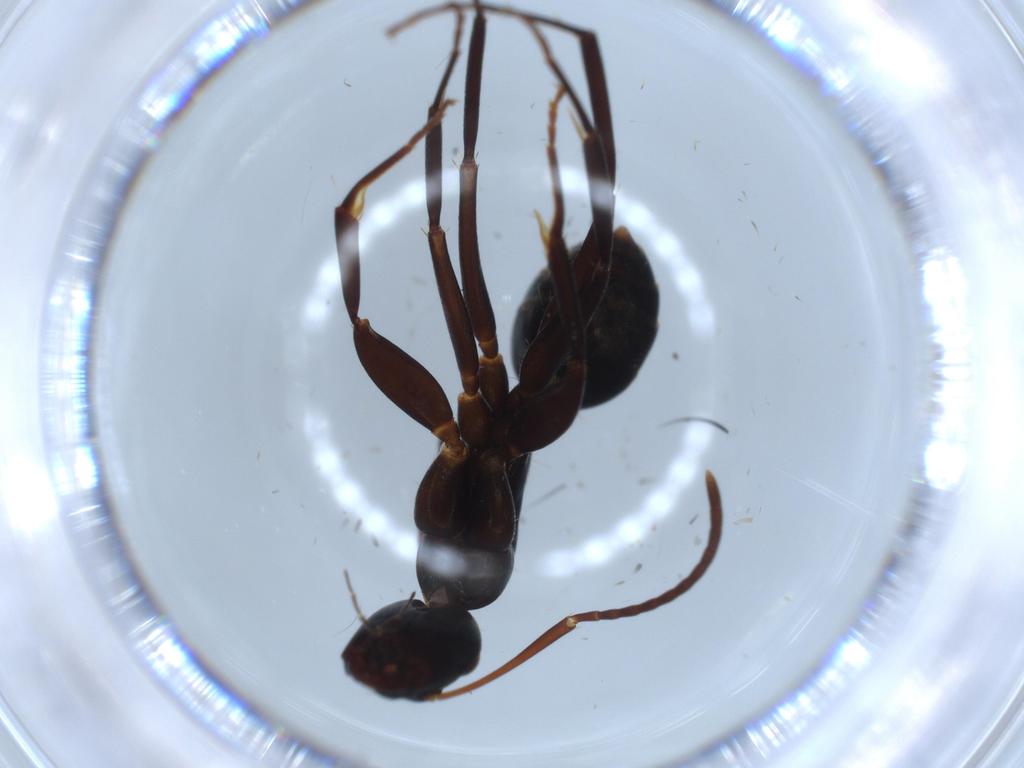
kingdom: Animalia
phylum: Arthropoda
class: Insecta
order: Hymenoptera
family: Formicidae
